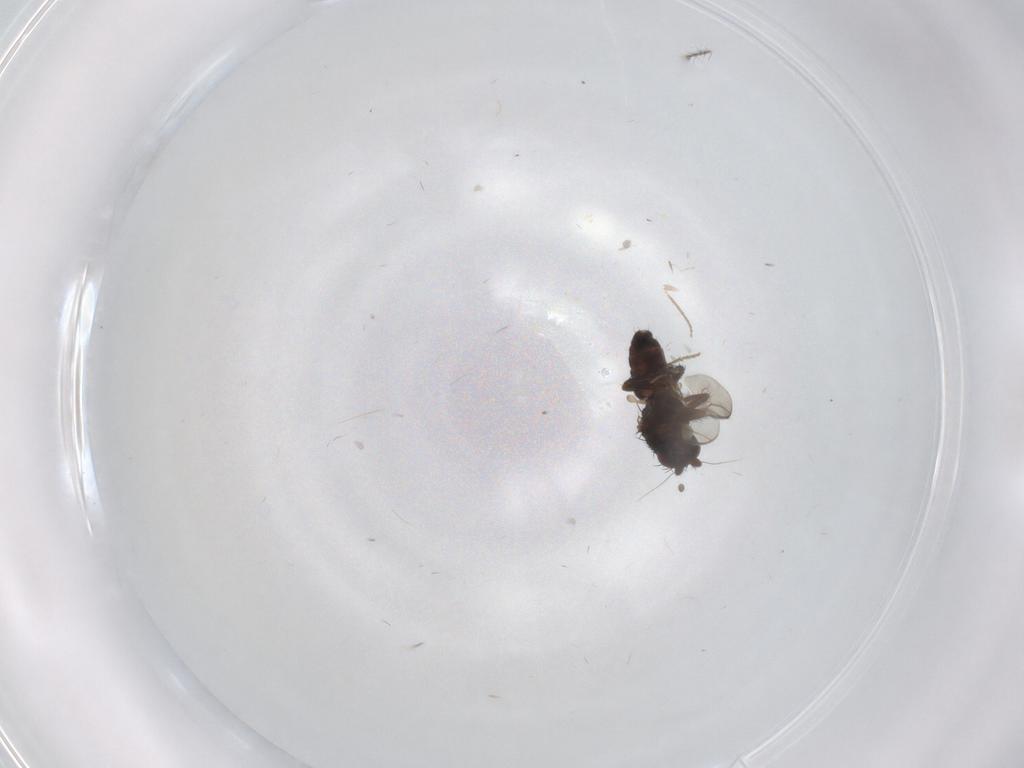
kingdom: Animalia
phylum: Arthropoda
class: Insecta
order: Diptera
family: Sphaeroceridae
